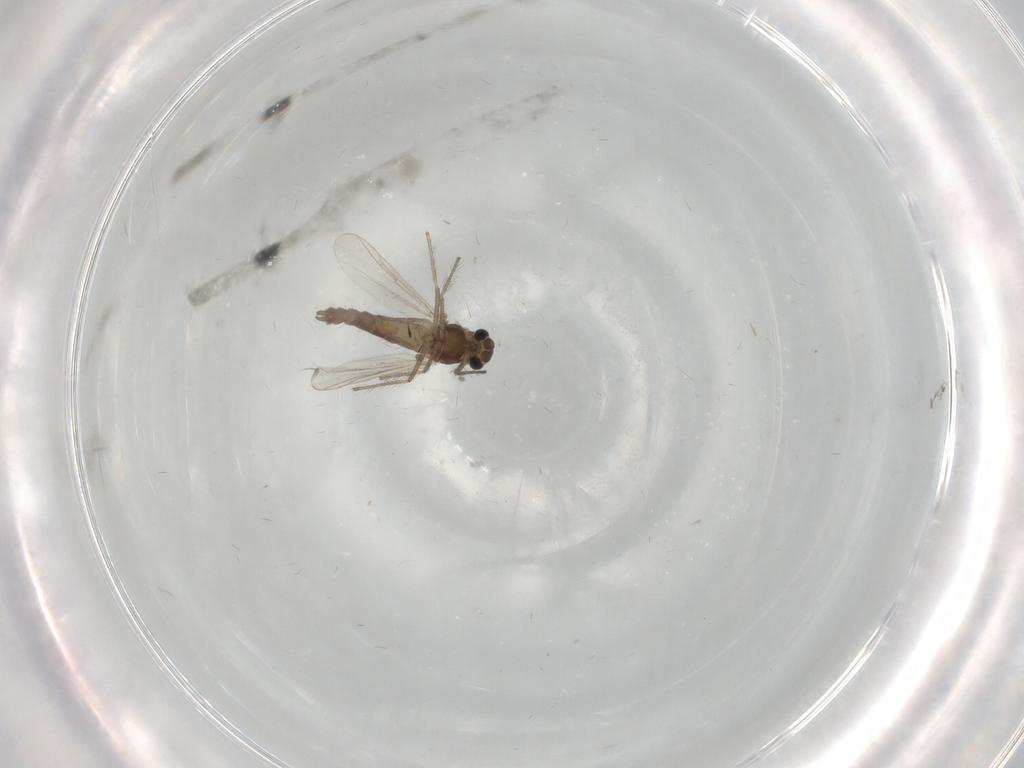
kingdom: Animalia
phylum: Arthropoda
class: Insecta
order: Diptera
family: Chironomidae
